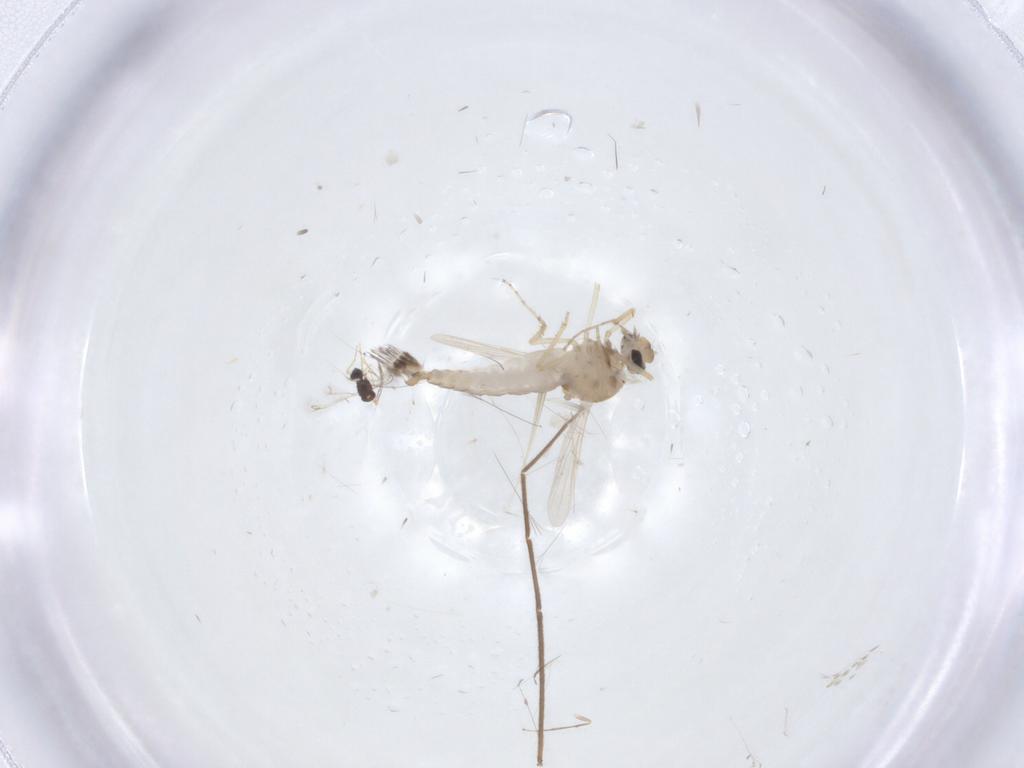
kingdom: Animalia
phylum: Arthropoda
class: Insecta
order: Diptera
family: Ceratopogonidae
